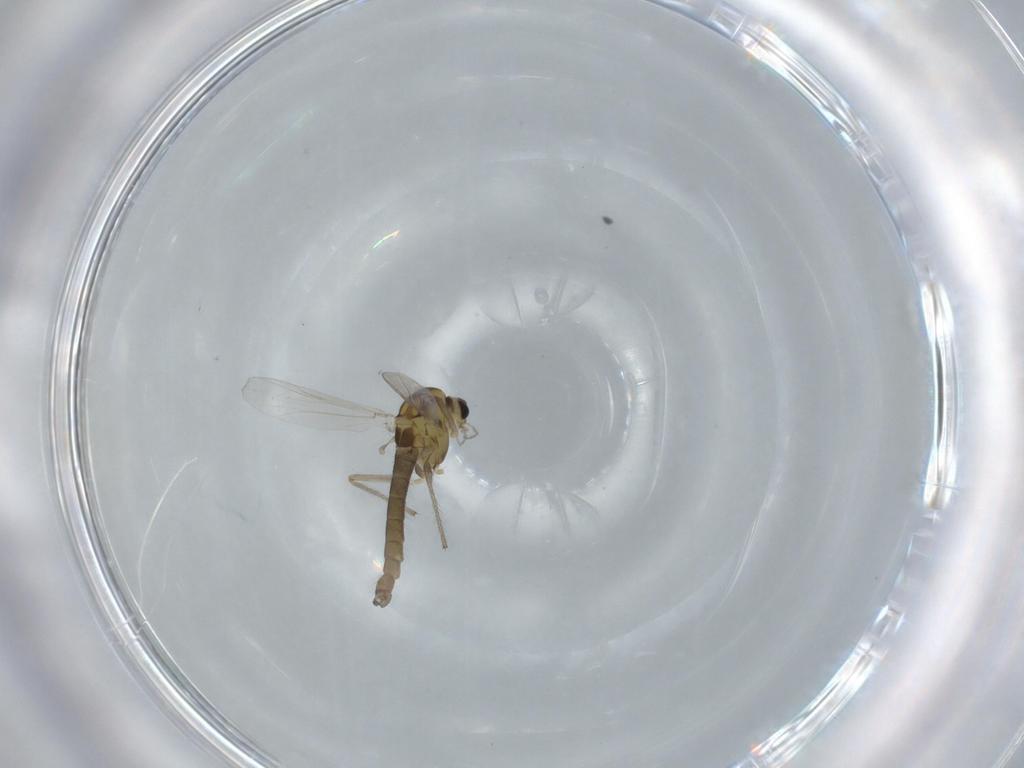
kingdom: Animalia
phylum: Arthropoda
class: Insecta
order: Diptera
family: Chironomidae
